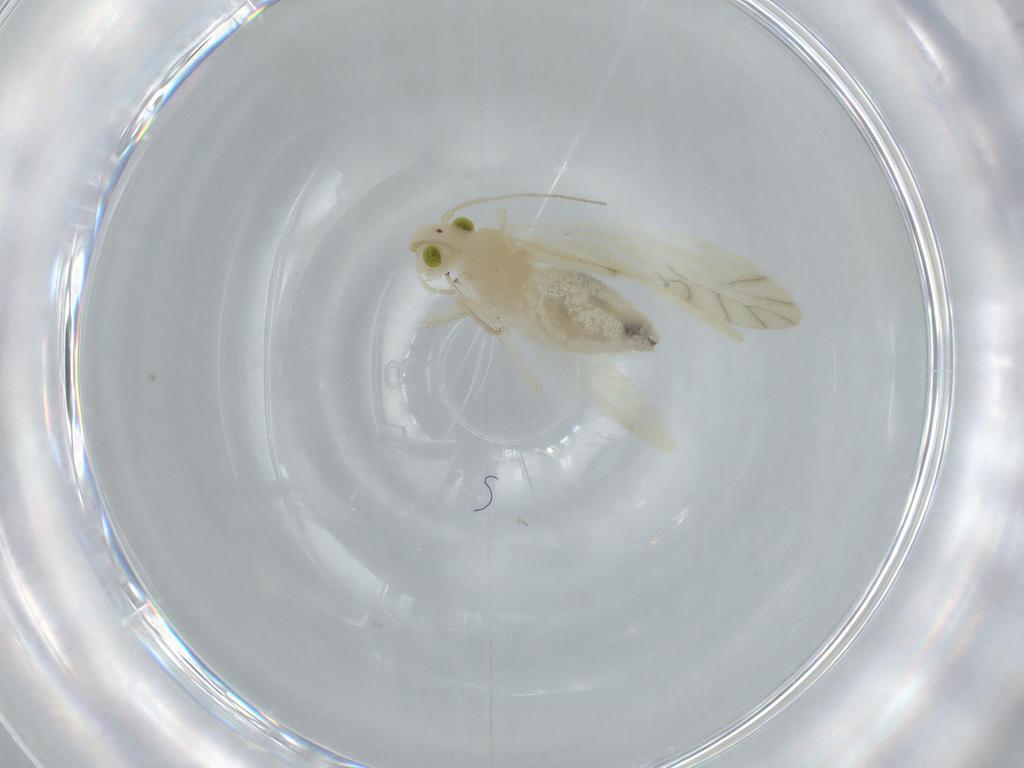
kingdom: Animalia
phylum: Arthropoda
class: Insecta
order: Psocodea
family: Caeciliusidae
